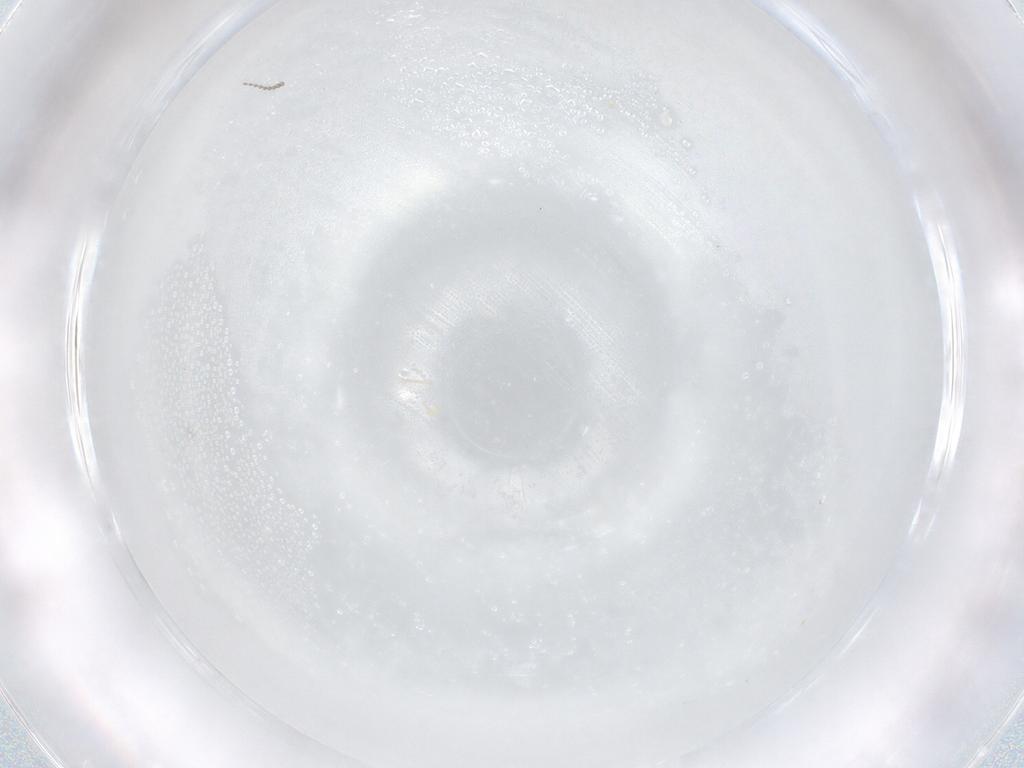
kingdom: Animalia
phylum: Arthropoda
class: Insecta
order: Diptera
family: Cecidomyiidae
